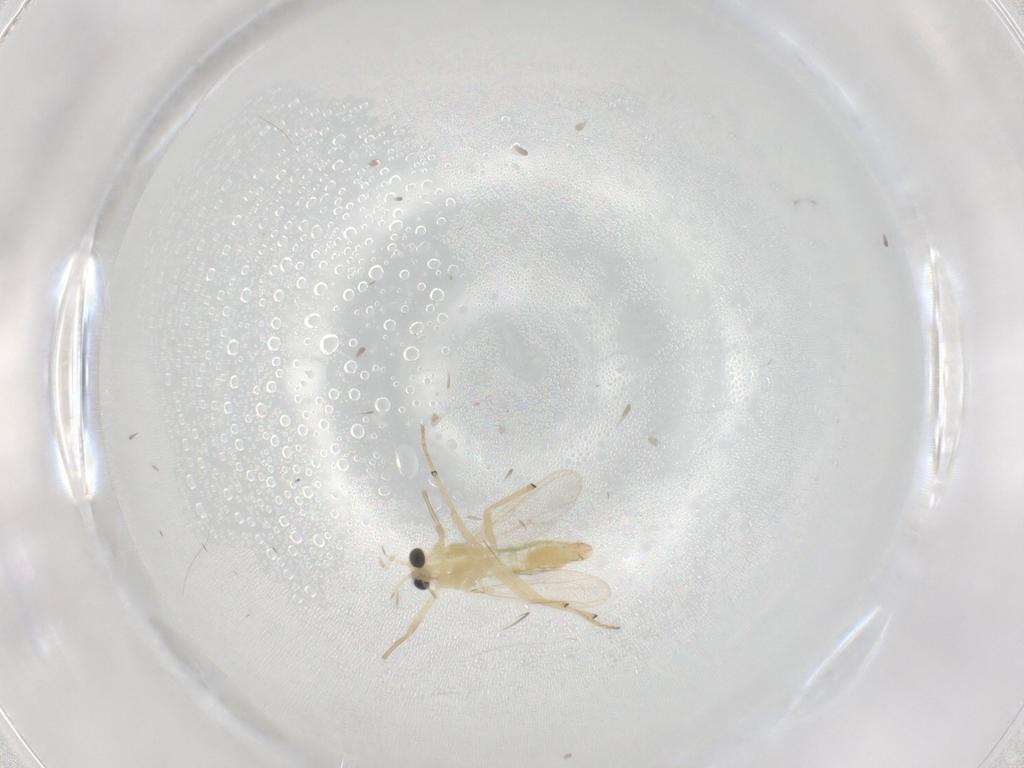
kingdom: Animalia
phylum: Arthropoda
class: Insecta
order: Diptera
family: Chironomidae
